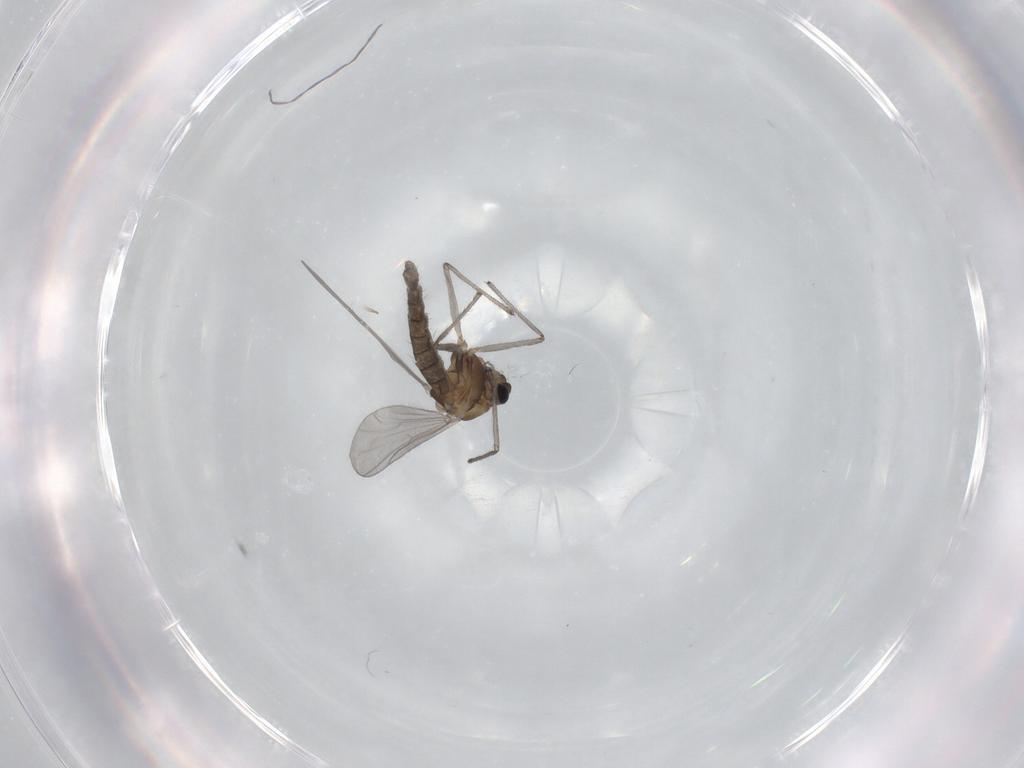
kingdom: Animalia
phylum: Arthropoda
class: Insecta
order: Diptera
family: Chironomidae
